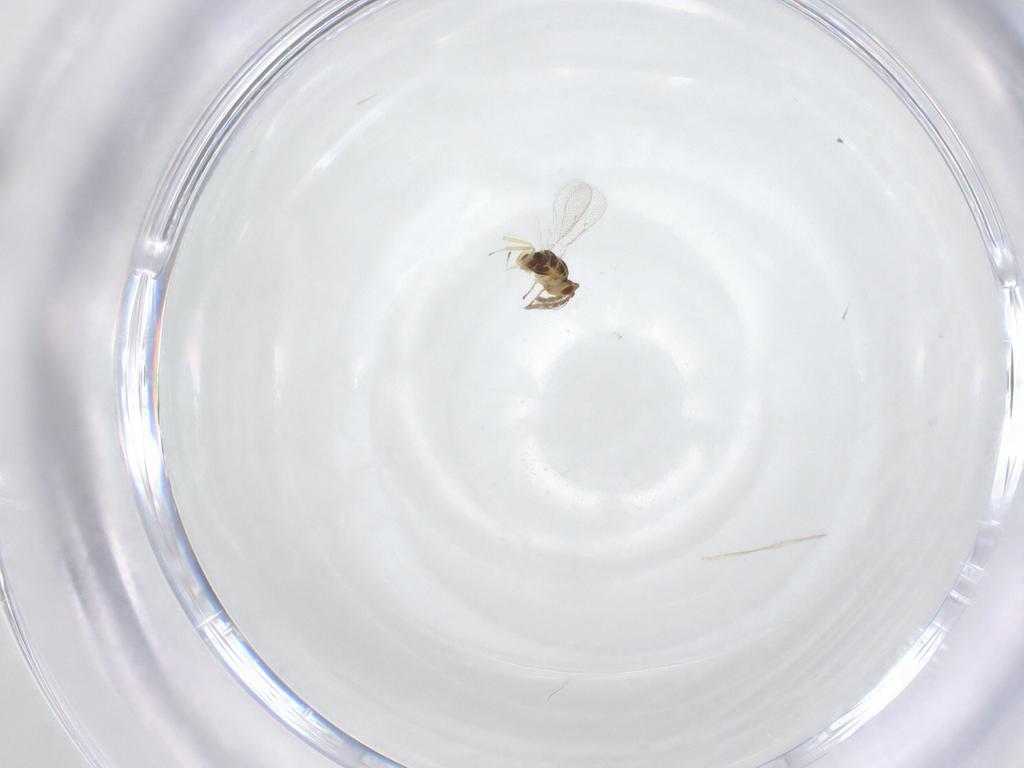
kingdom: Animalia
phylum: Arthropoda
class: Insecta
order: Hymenoptera
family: Eulophidae
